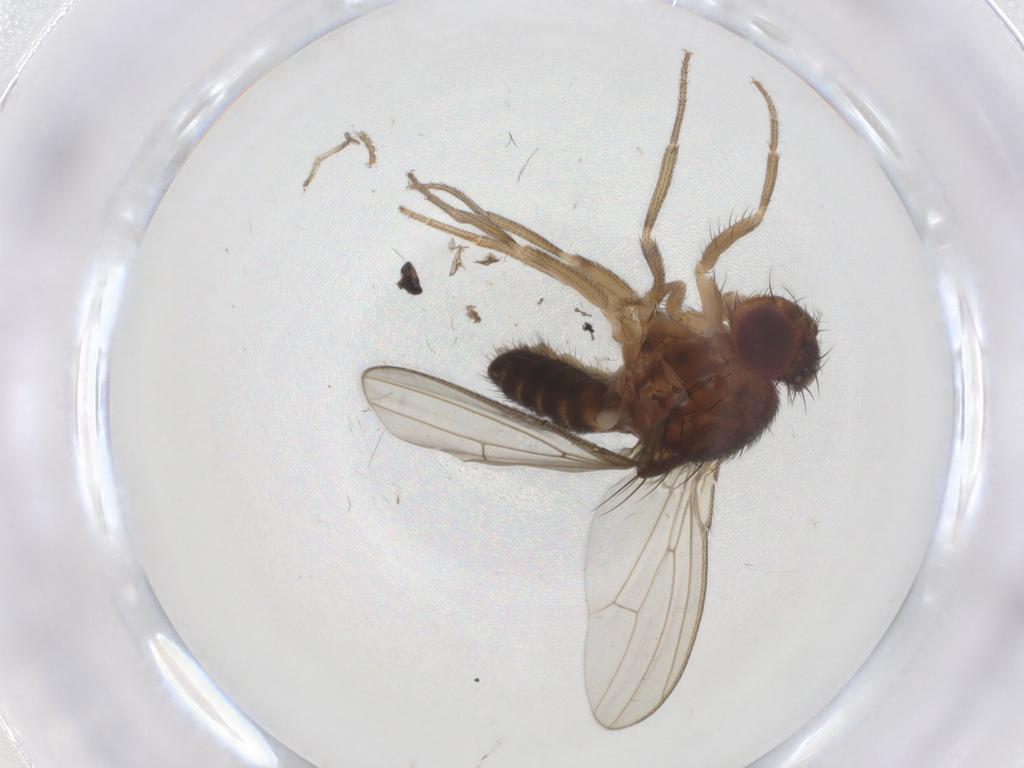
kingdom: Animalia
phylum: Arthropoda
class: Insecta
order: Diptera
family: Drosophilidae
